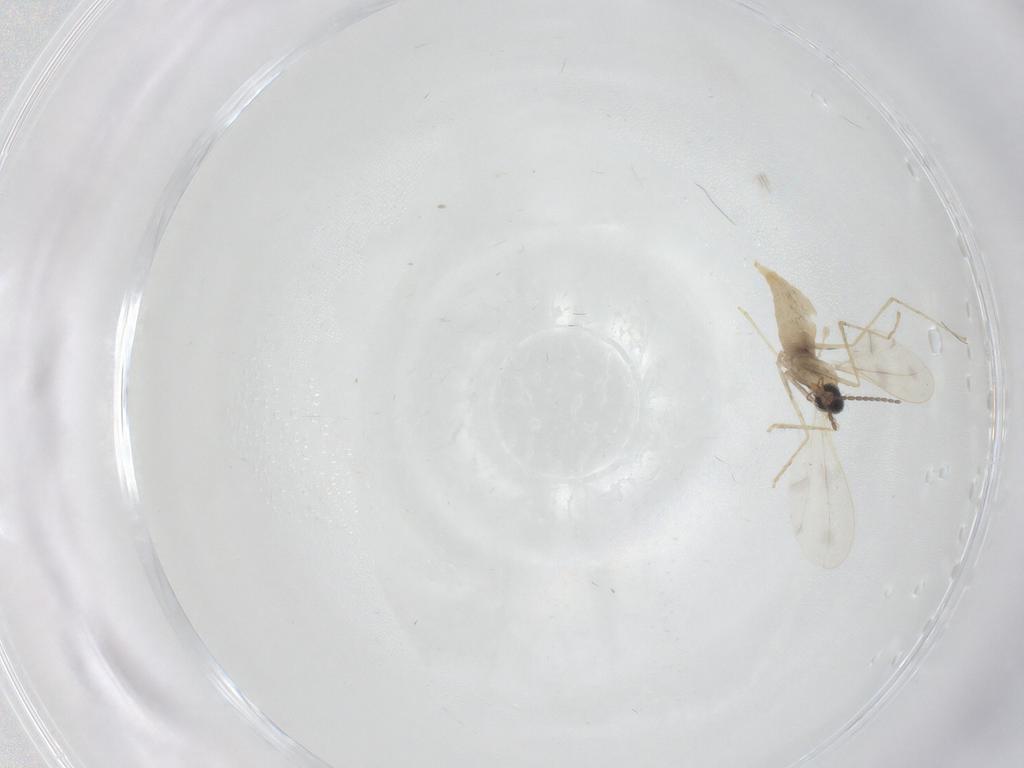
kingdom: Animalia
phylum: Arthropoda
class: Insecta
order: Diptera
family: Cecidomyiidae
